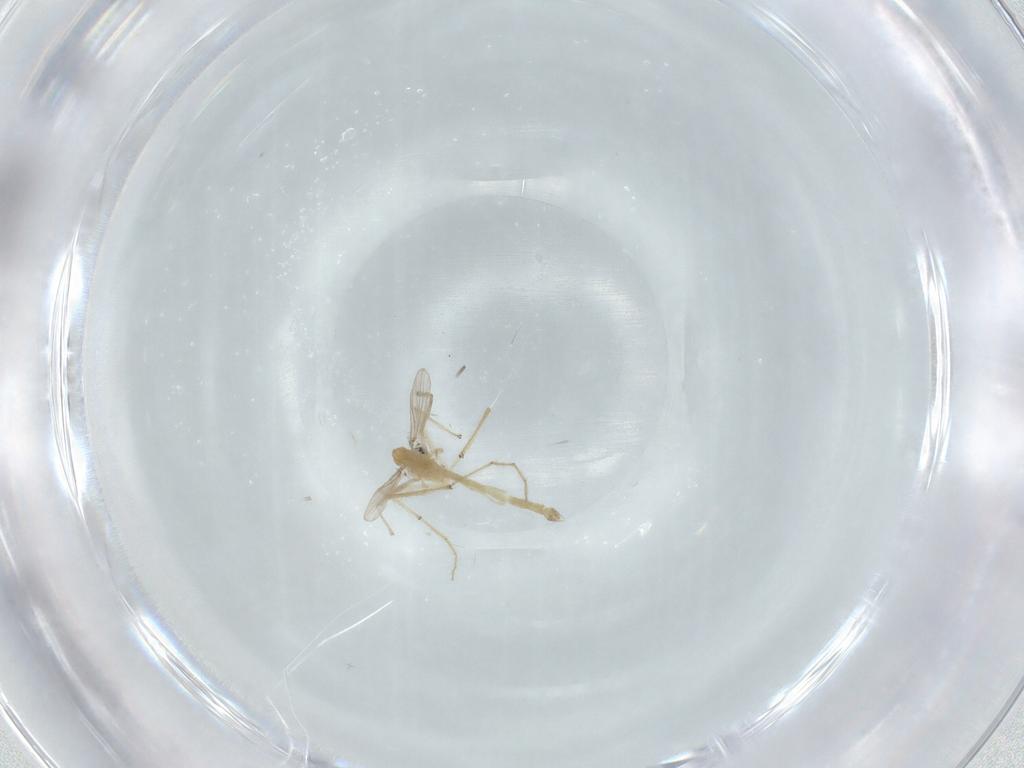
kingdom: Animalia
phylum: Arthropoda
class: Insecta
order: Diptera
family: Chironomidae
